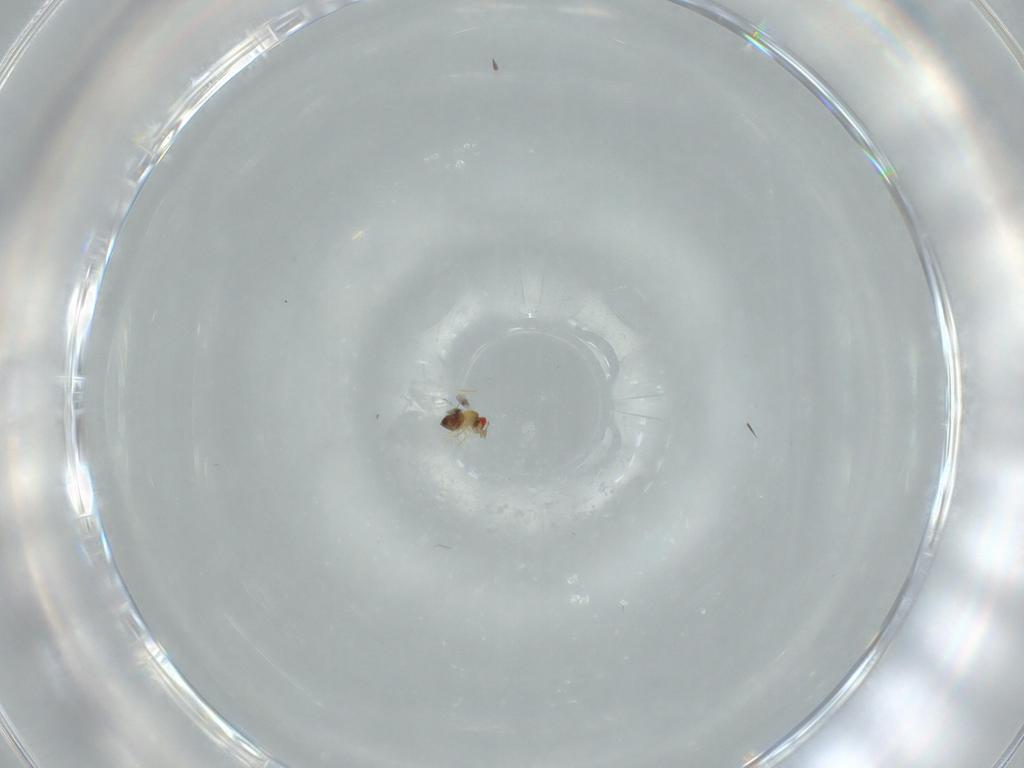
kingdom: Animalia
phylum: Arthropoda
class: Insecta
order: Hymenoptera
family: Trichogrammatidae
